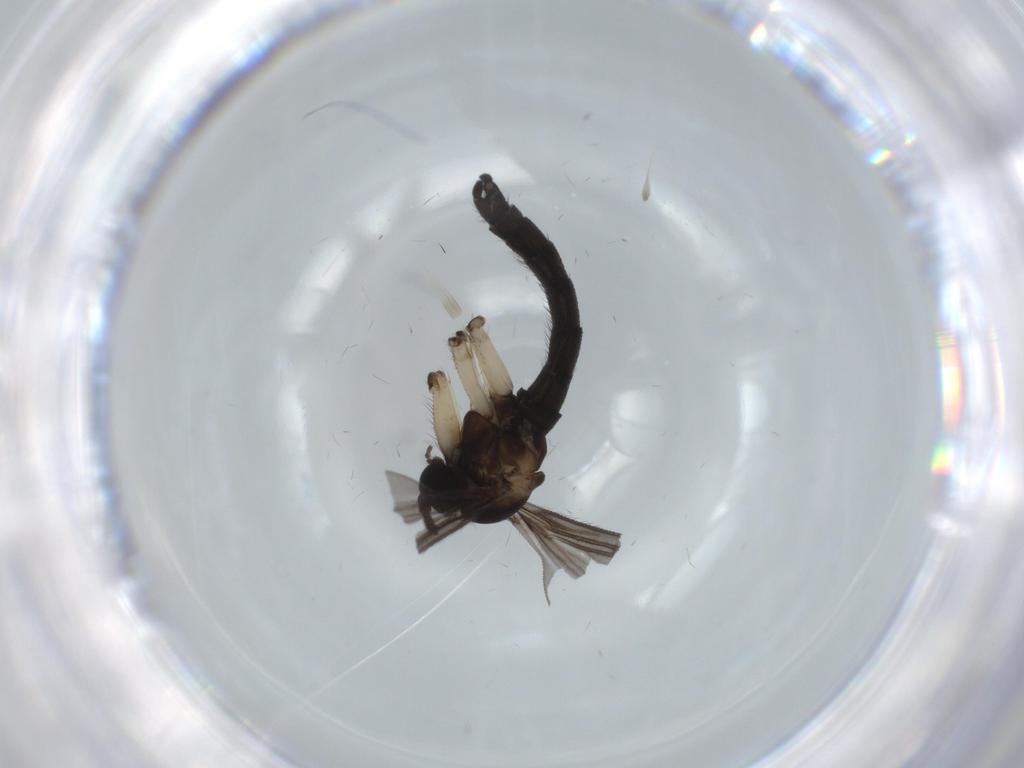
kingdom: Animalia
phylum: Arthropoda
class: Insecta
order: Diptera
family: Sciaridae
